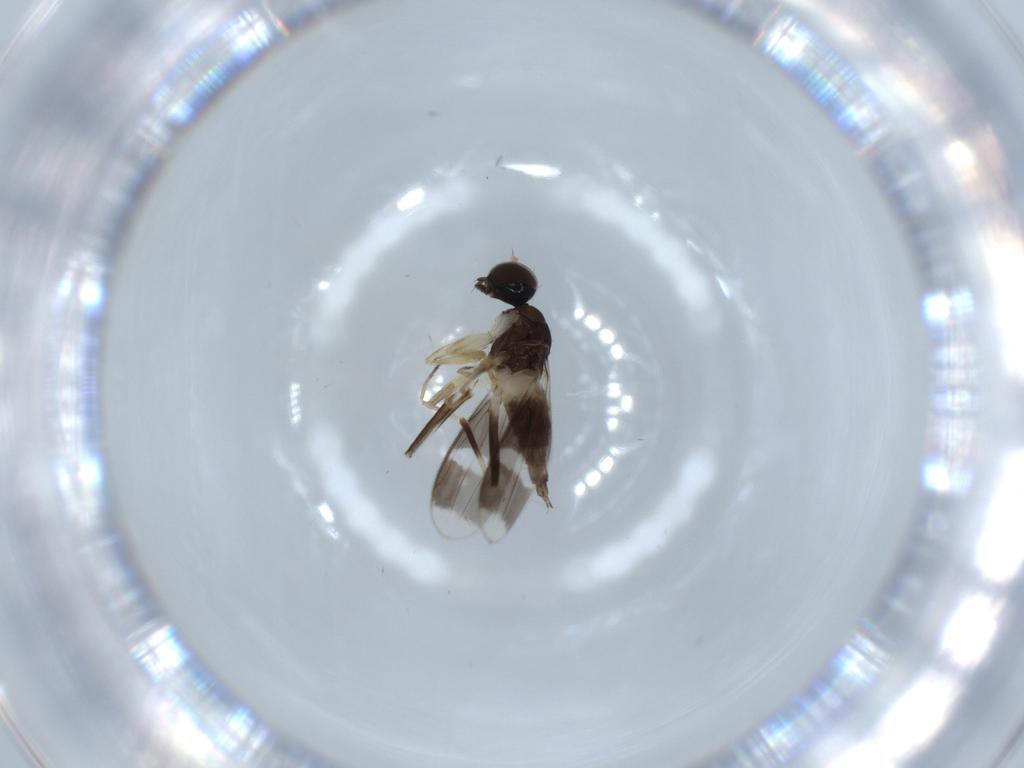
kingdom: Animalia
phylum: Arthropoda
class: Insecta
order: Diptera
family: Hybotidae
